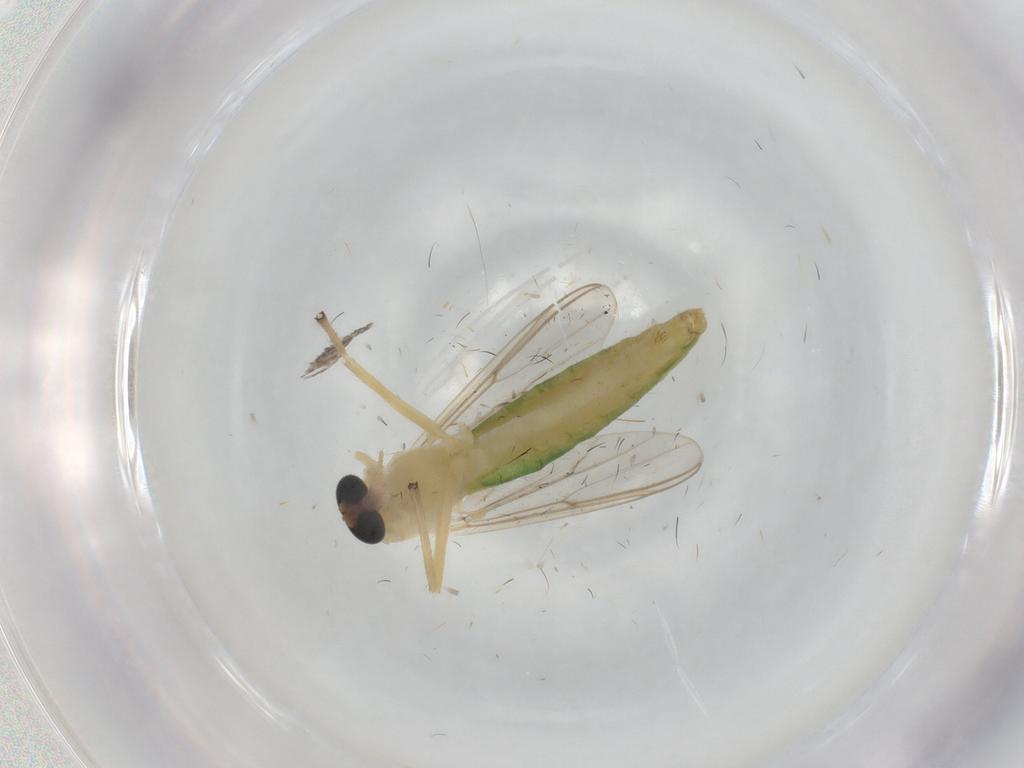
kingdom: Animalia
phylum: Arthropoda
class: Insecta
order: Diptera
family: Chironomidae
